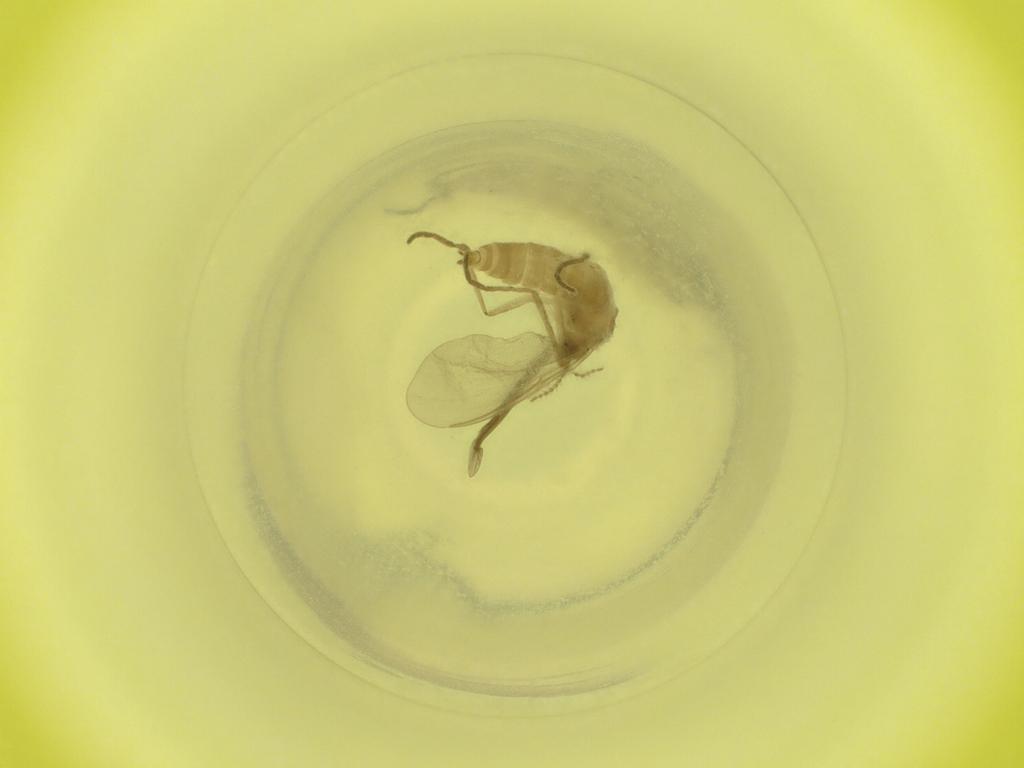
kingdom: Animalia
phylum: Arthropoda
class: Insecta
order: Diptera
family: Cecidomyiidae
